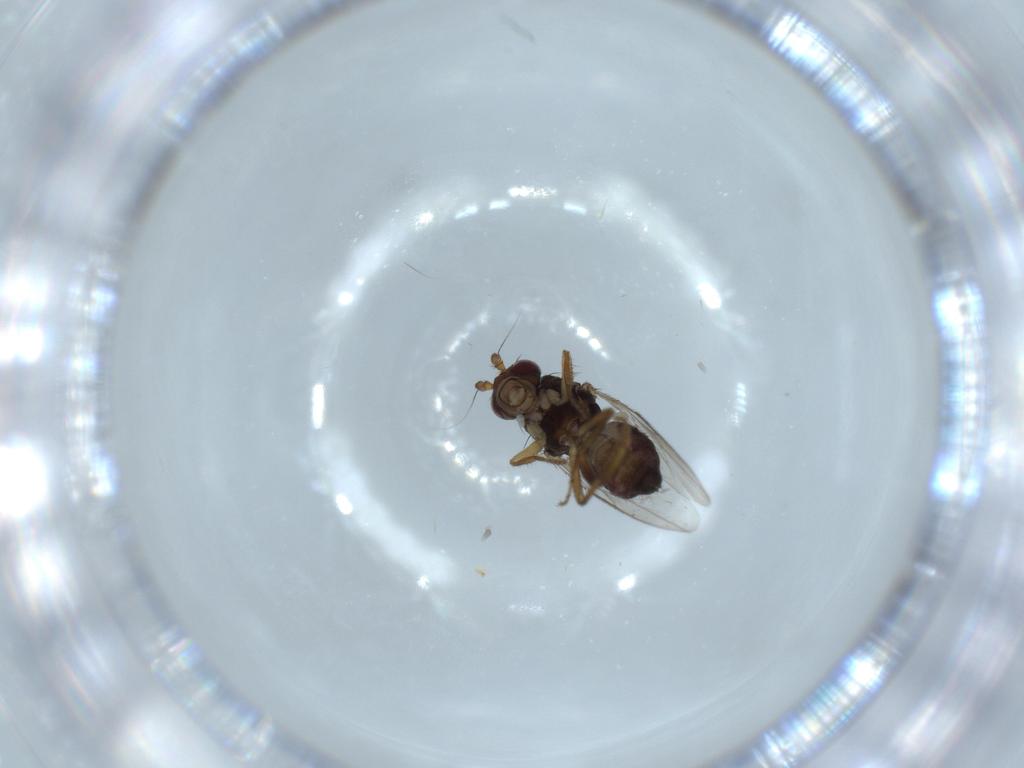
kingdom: Animalia
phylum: Arthropoda
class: Insecta
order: Diptera
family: Sphaeroceridae
